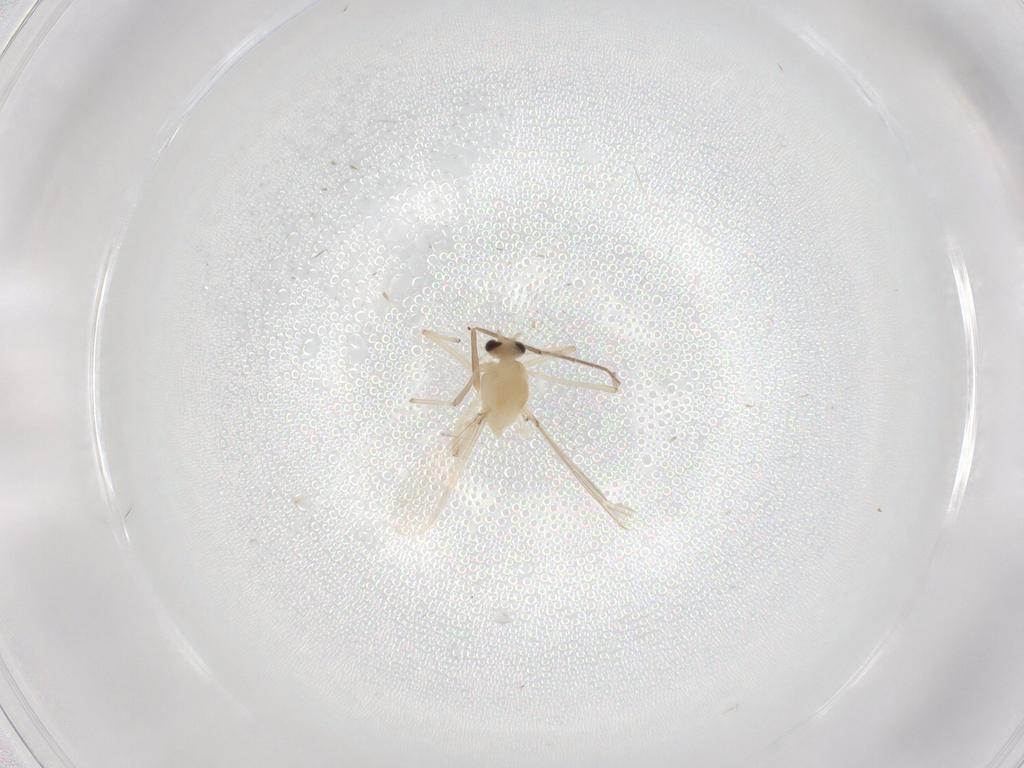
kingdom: Animalia
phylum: Arthropoda
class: Insecta
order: Diptera
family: Chironomidae
